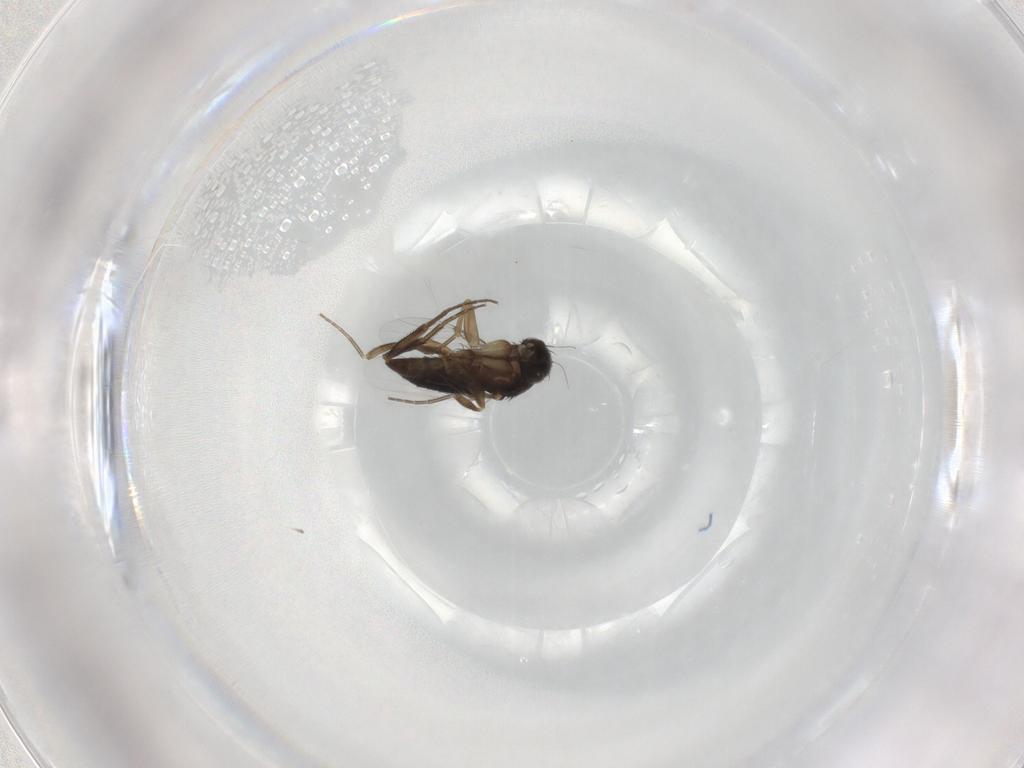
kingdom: Animalia
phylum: Arthropoda
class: Insecta
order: Diptera
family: Phoridae
